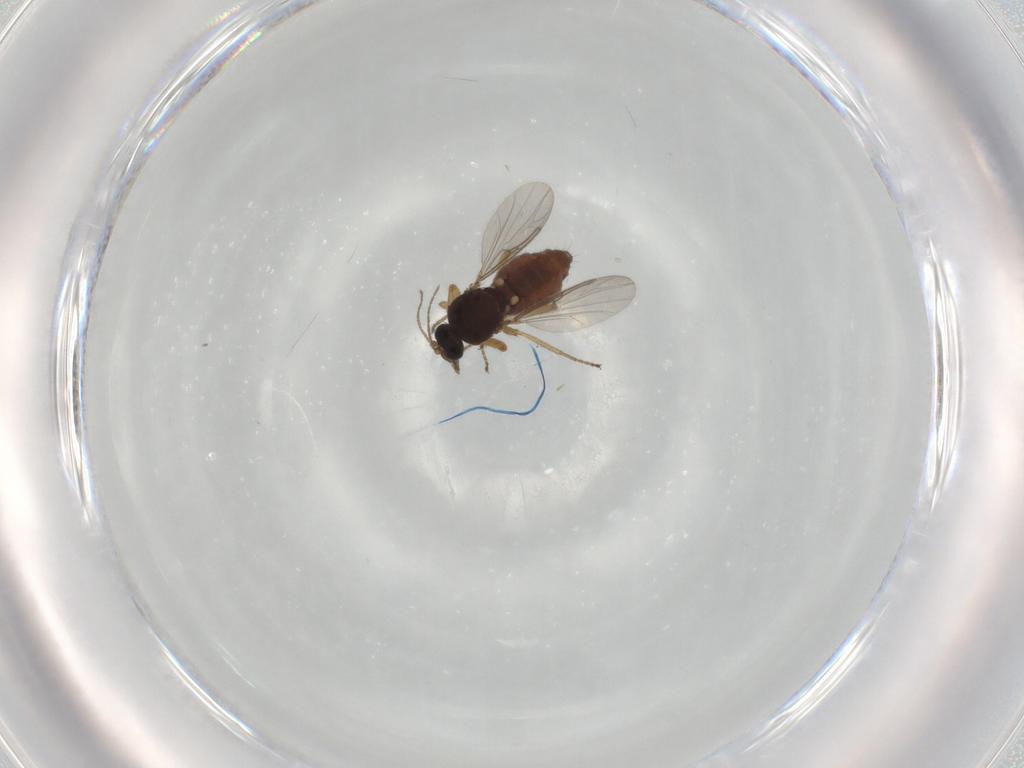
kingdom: Animalia
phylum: Arthropoda
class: Insecta
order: Diptera
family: Ceratopogonidae
